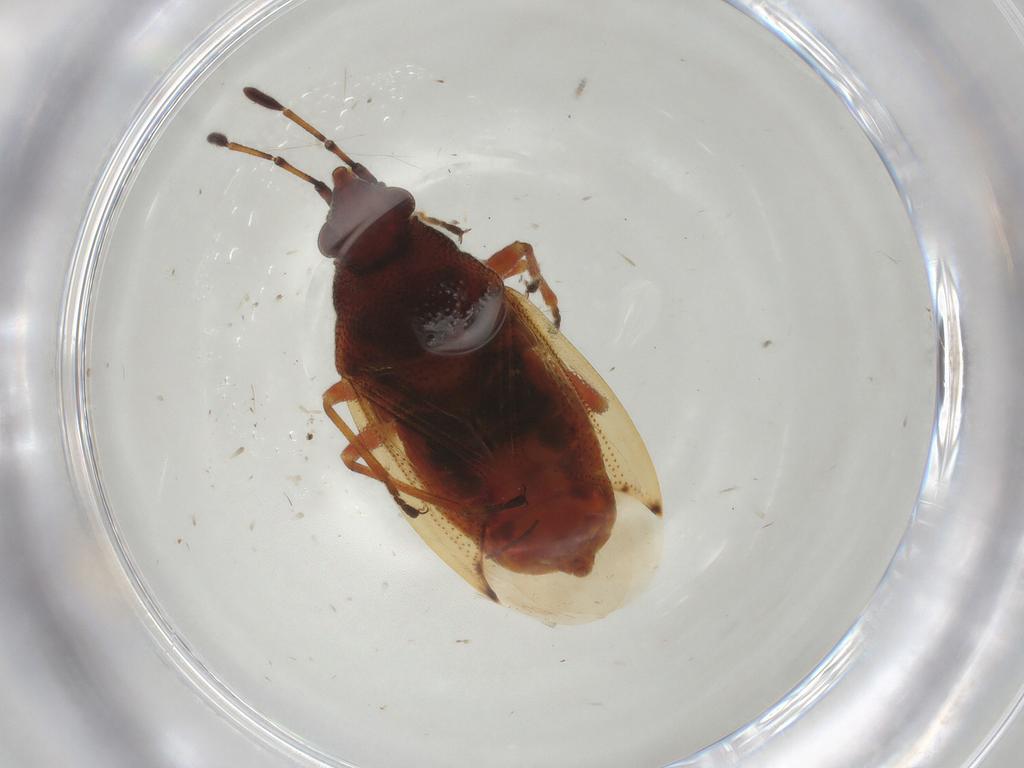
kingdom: Animalia
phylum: Arthropoda
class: Insecta
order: Hemiptera
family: Lygaeidae
